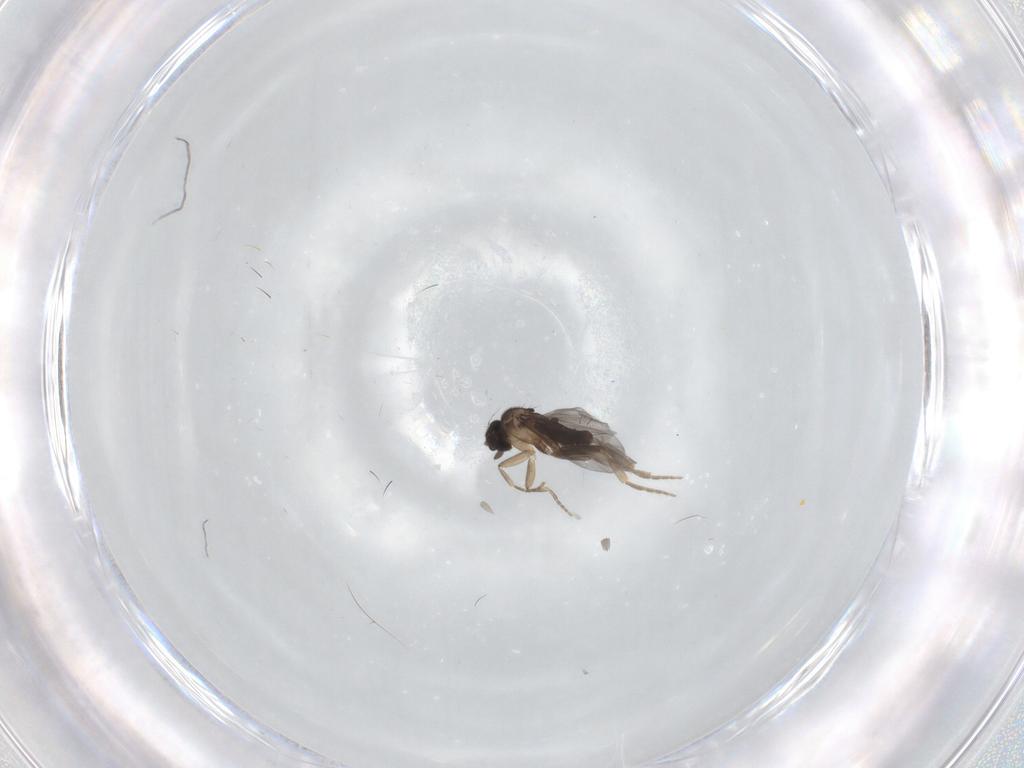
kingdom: Animalia
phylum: Arthropoda
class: Insecta
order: Diptera
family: Cecidomyiidae
